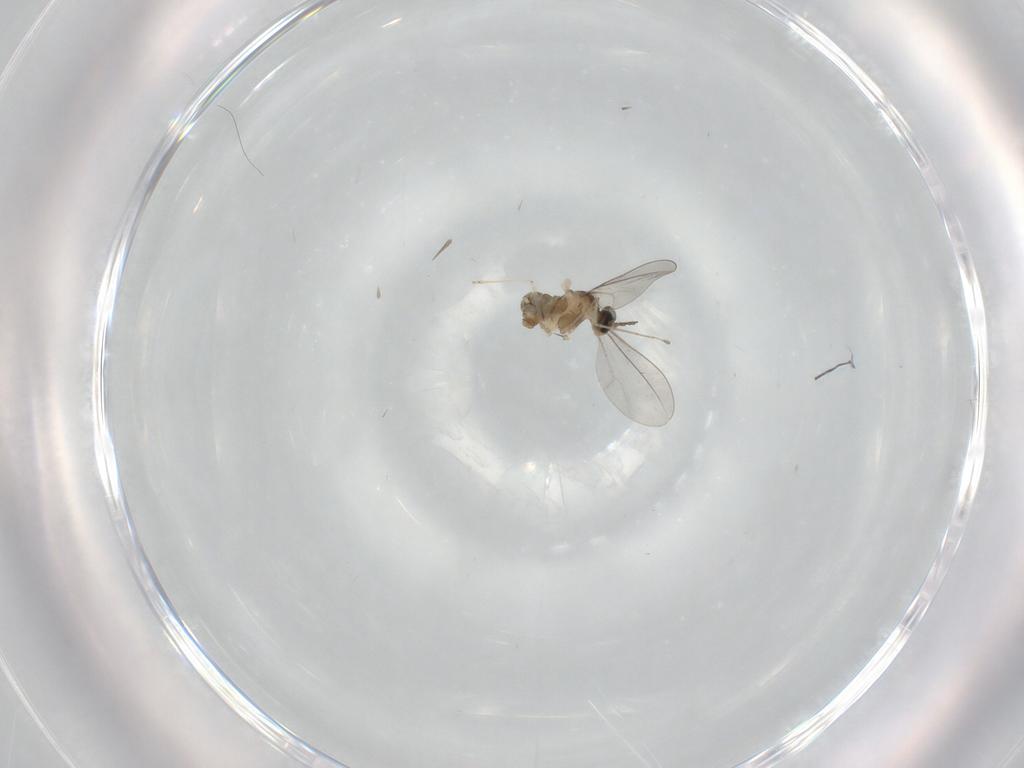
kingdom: Animalia
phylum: Arthropoda
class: Insecta
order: Diptera
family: Cecidomyiidae
